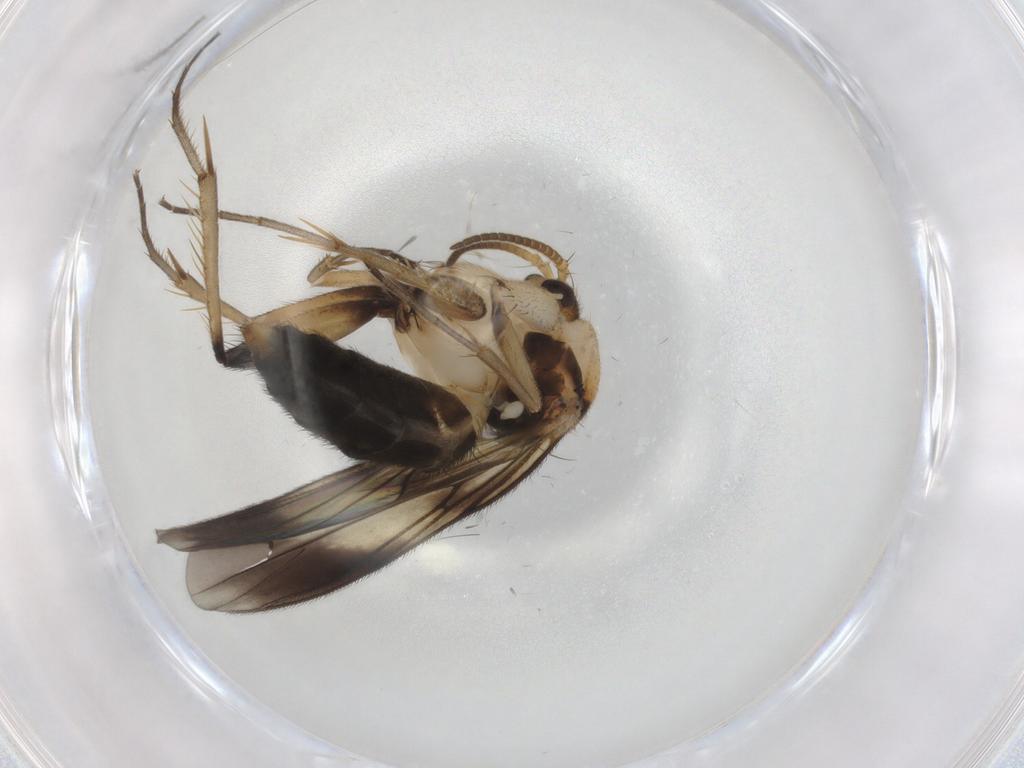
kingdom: Animalia
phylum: Arthropoda
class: Insecta
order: Diptera
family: Mycetophilidae
